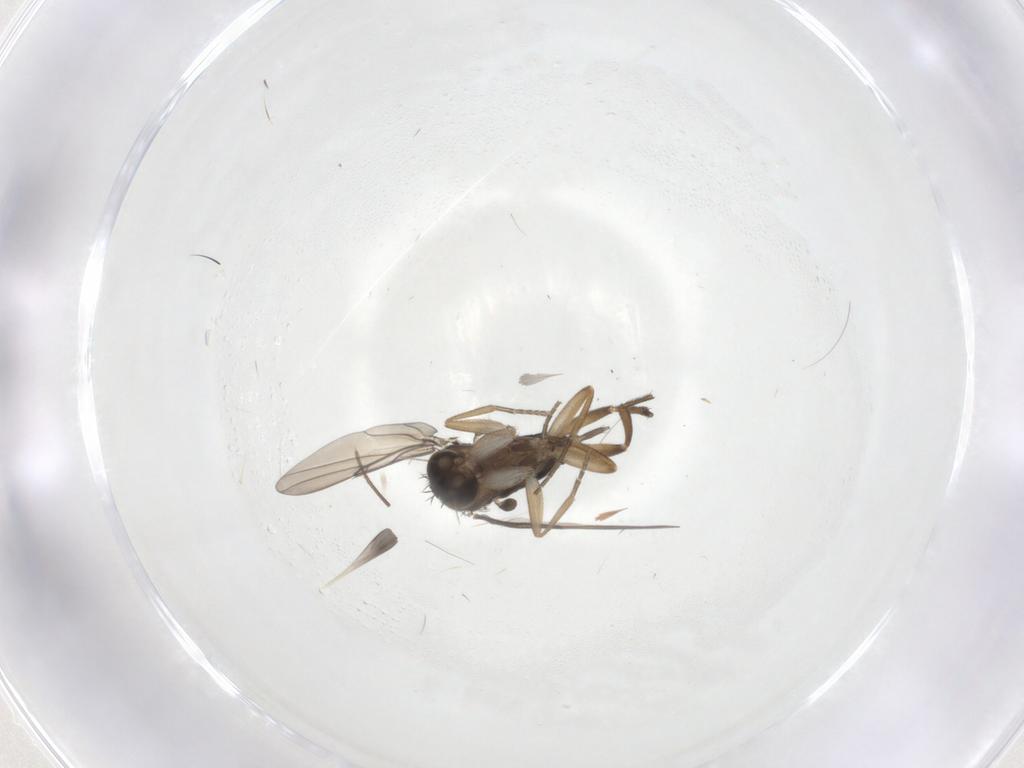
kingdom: Animalia
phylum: Arthropoda
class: Insecta
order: Diptera
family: Phoridae
